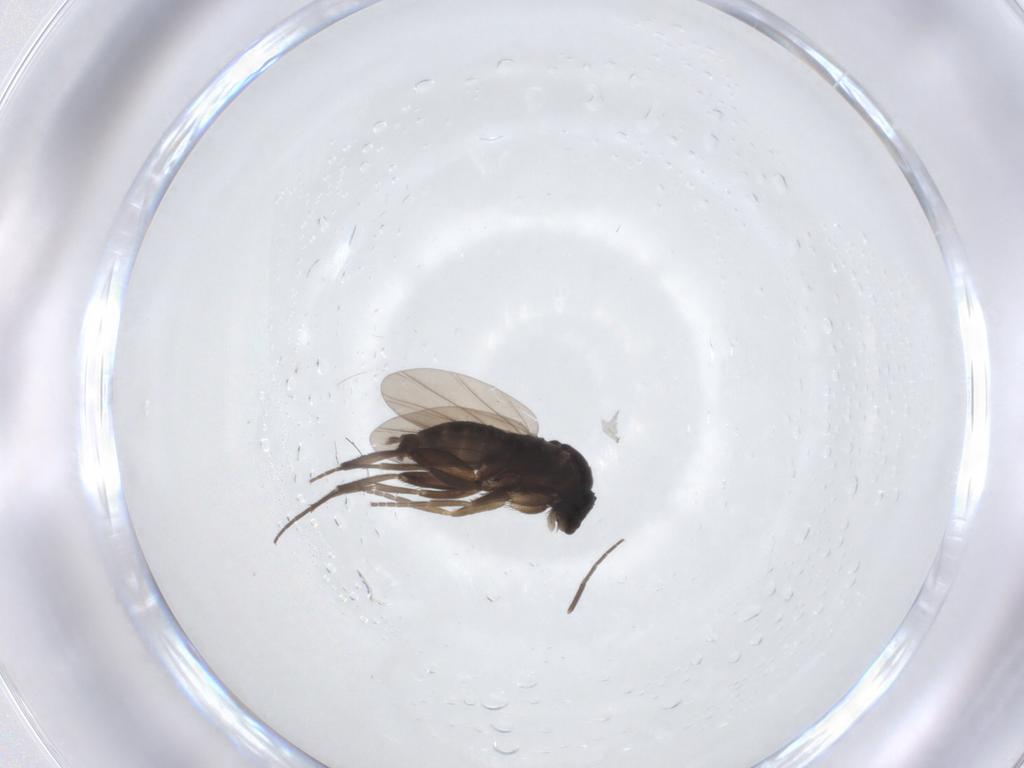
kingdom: Animalia
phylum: Arthropoda
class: Insecta
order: Diptera
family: Phoridae
